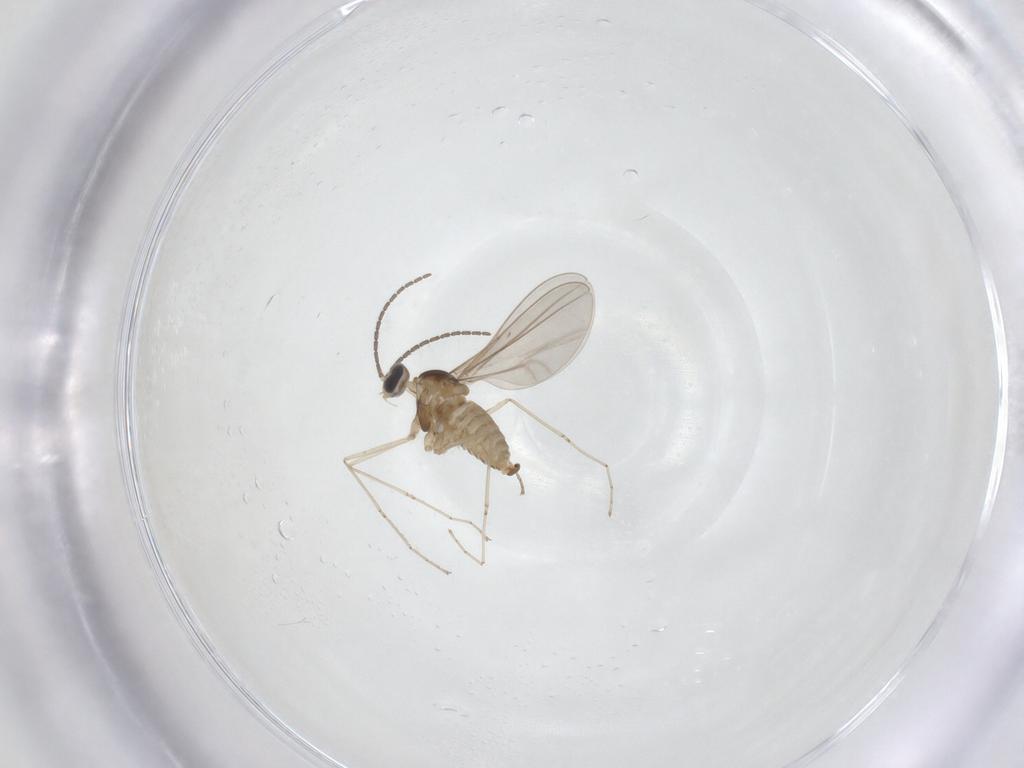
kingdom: Animalia
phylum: Arthropoda
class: Insecta
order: Diptera
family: Cecidomyiidae
